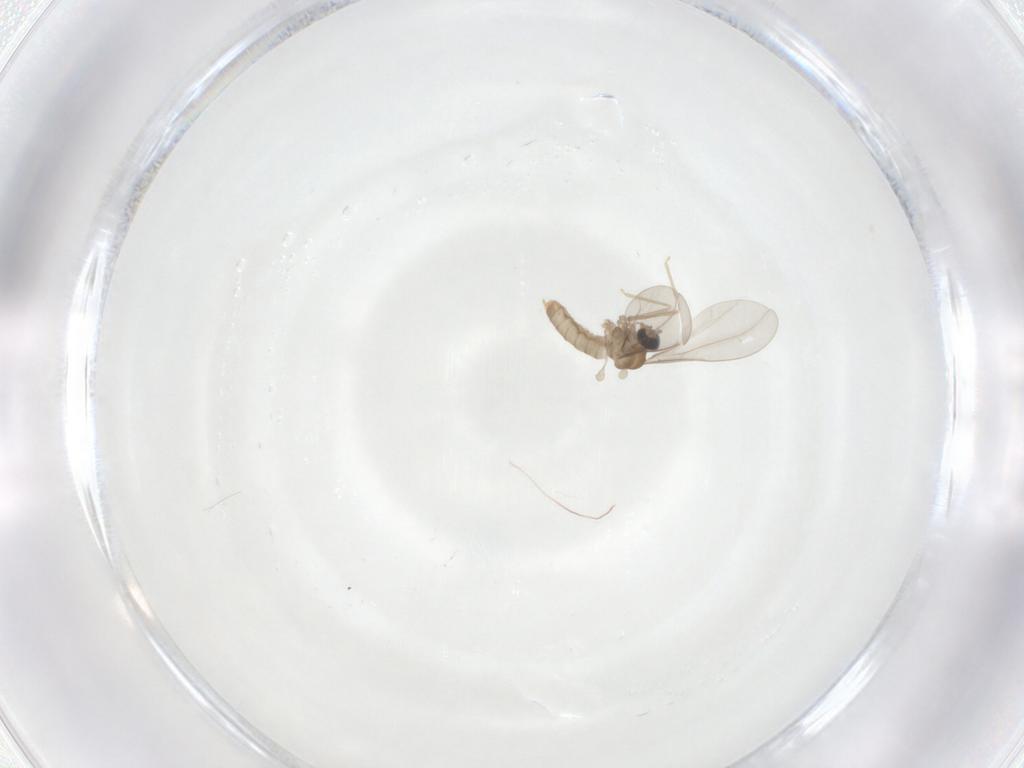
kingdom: Animalia
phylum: Arthropoda
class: Insecta
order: Diptera
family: Cecidomyiidae
